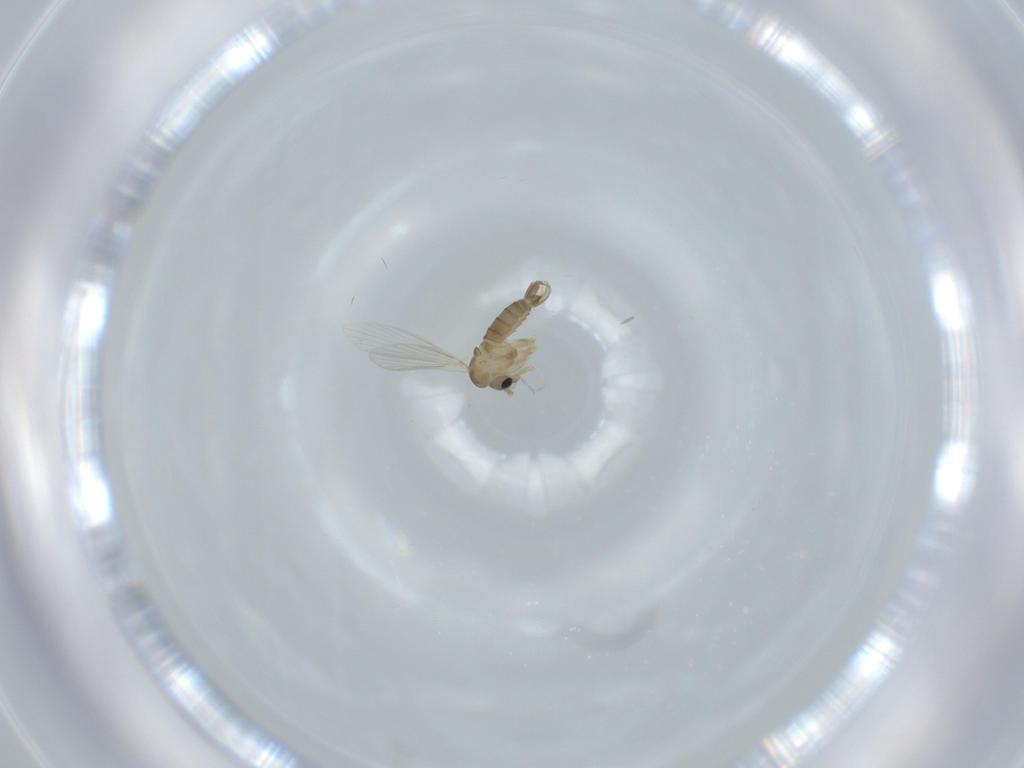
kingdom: Animalia
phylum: Arthropoda
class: Insecta
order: Diptera
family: Psychodidae
